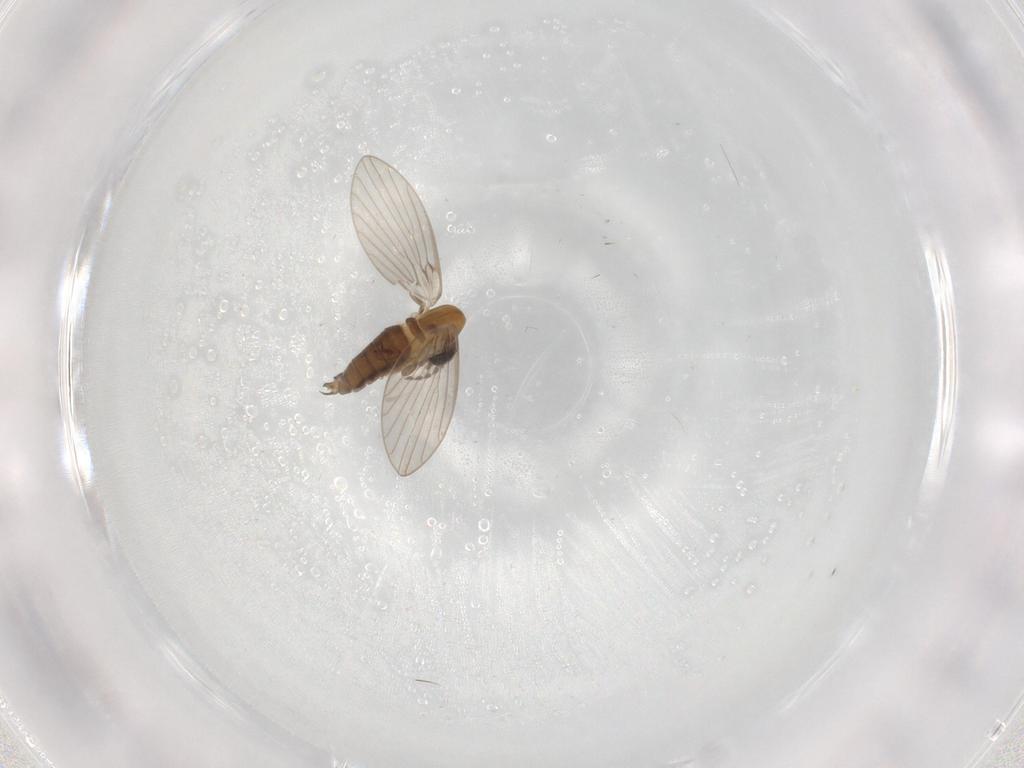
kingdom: Animalia
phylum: Arthropoda
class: Insecta
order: Diptera
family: Psychodidae
